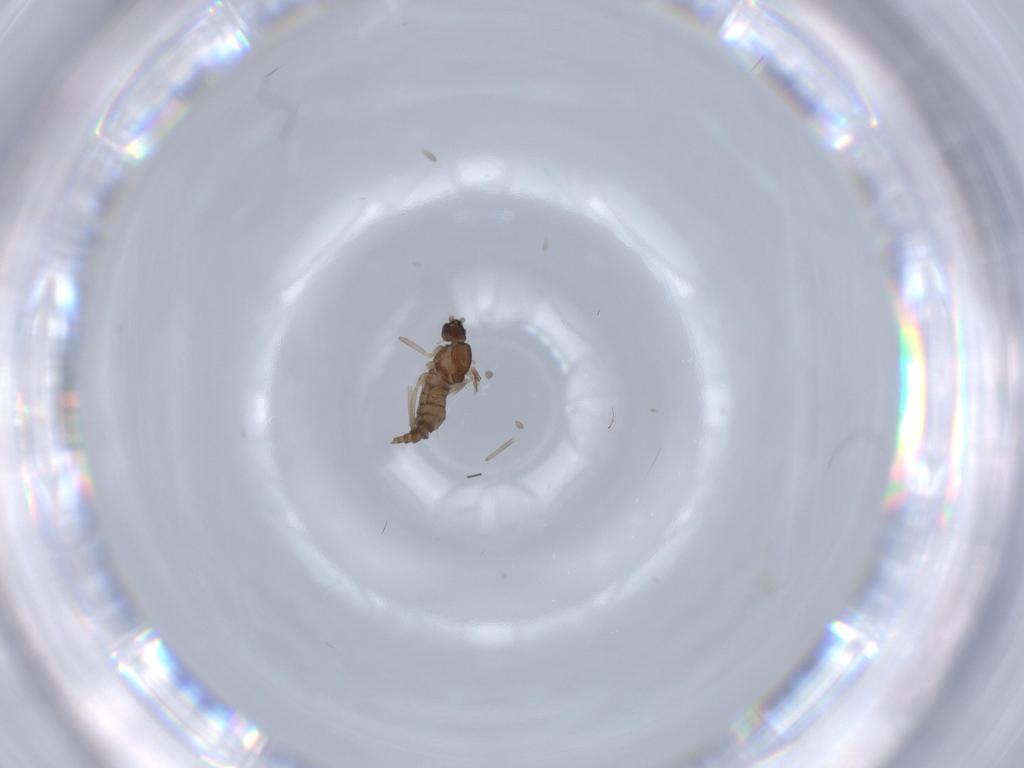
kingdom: Animalia
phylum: Arthropoda
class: Insecta
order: Diptera
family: Cecidomyiidae
